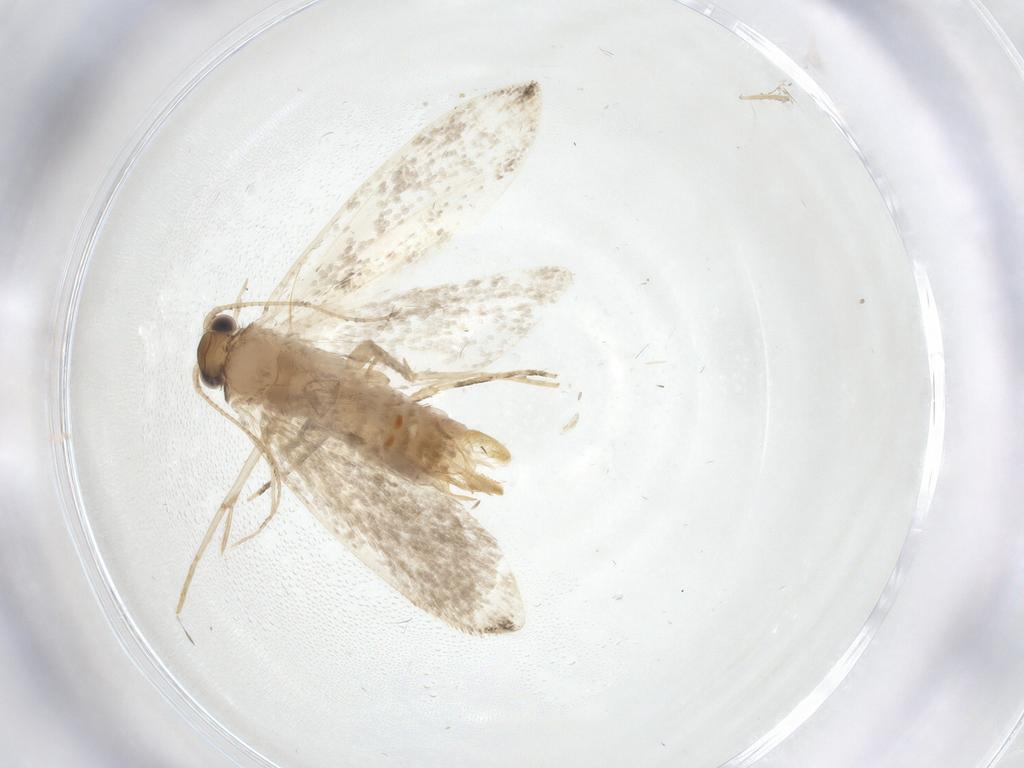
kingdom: Animalia
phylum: Arthropoda
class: Insecta
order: Lepidoptera
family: Tineidae
